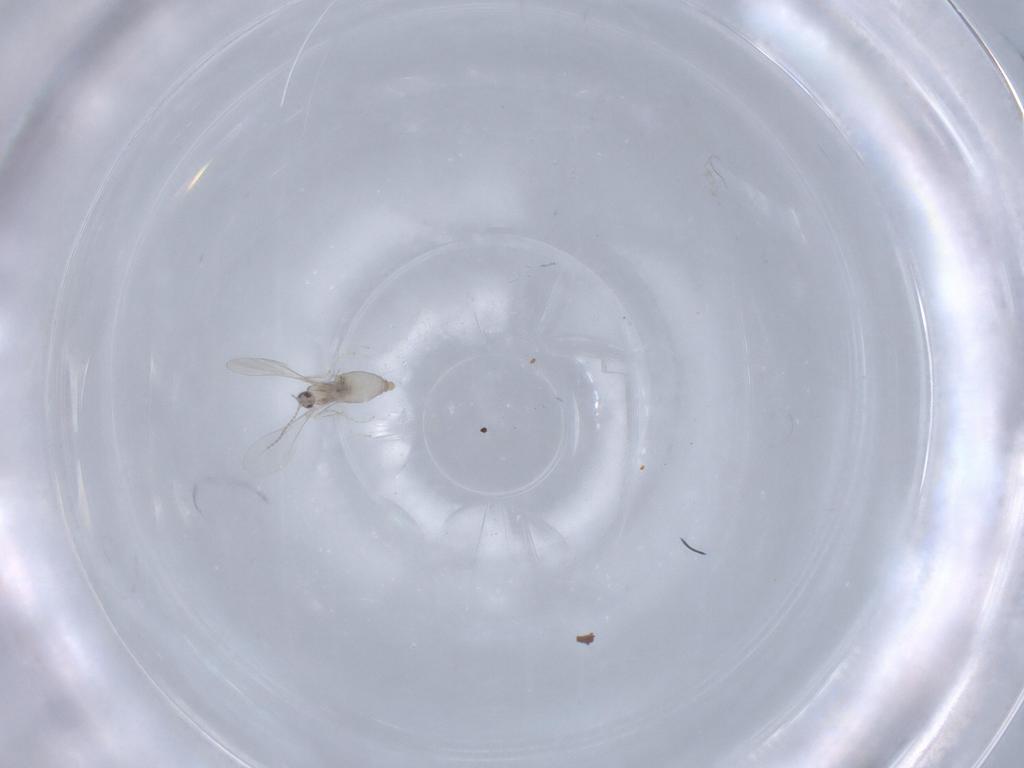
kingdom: Animalia
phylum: Arthropoda
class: Insecta
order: Diptera
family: Cecidomyiidae
